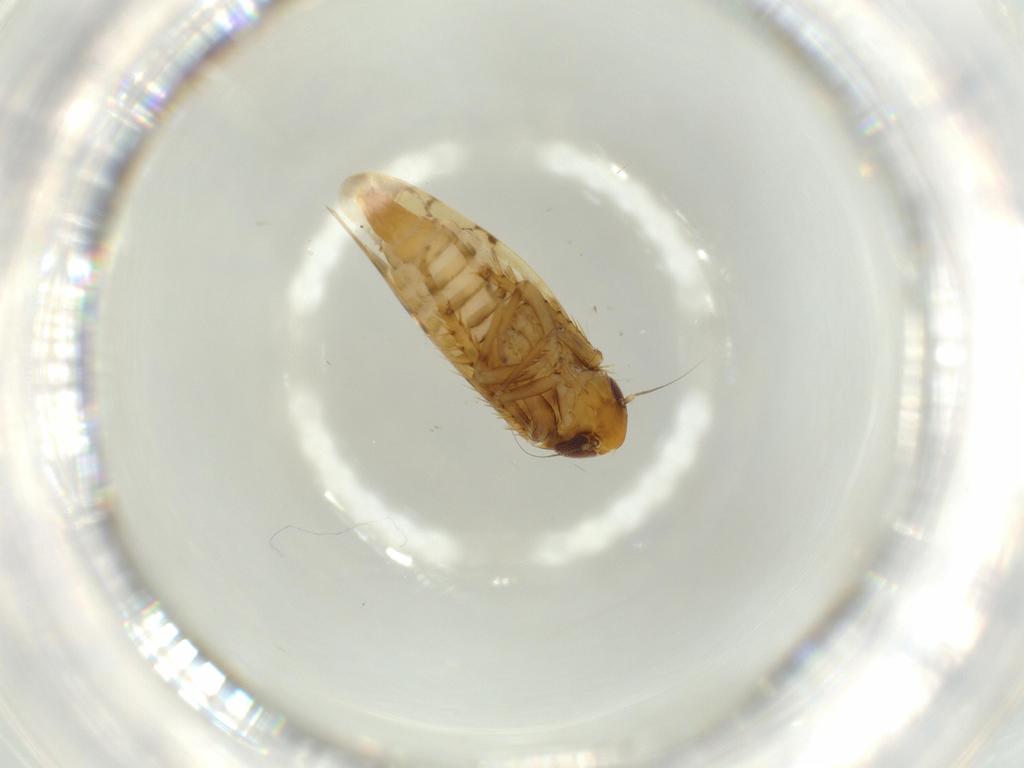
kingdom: Animalia
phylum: Arthropoda
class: Insecta
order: Hemiptera
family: Cicadellidae
